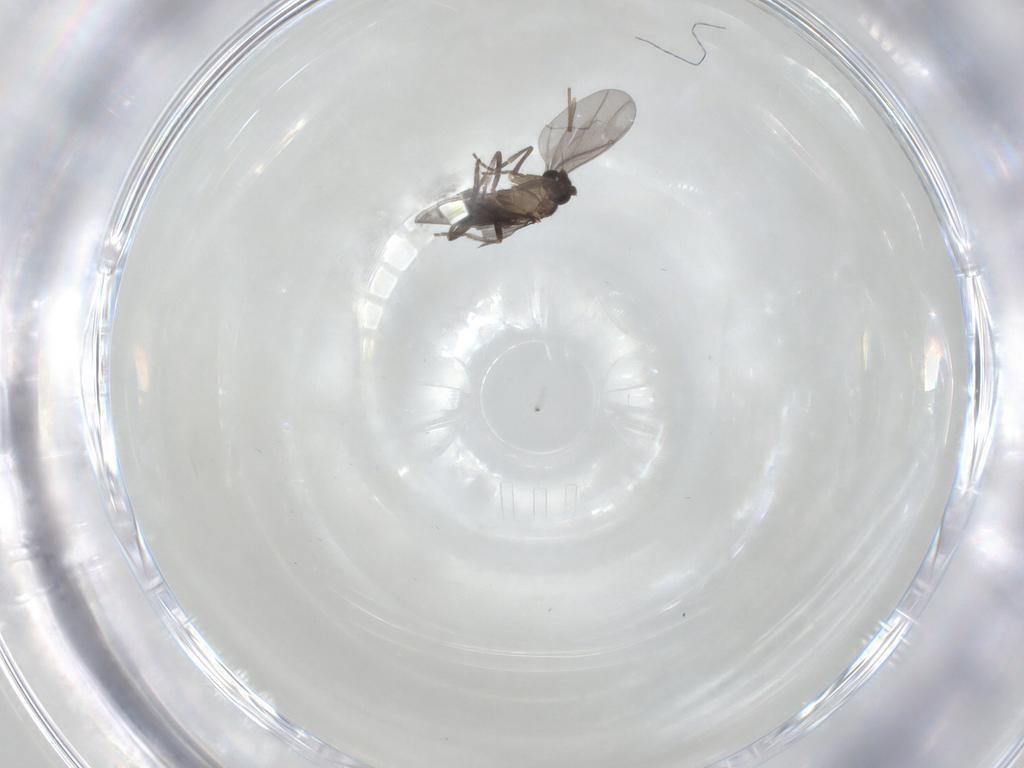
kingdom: Animalia
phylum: Arthropoda
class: Insecta
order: Diptera
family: Phoridae
